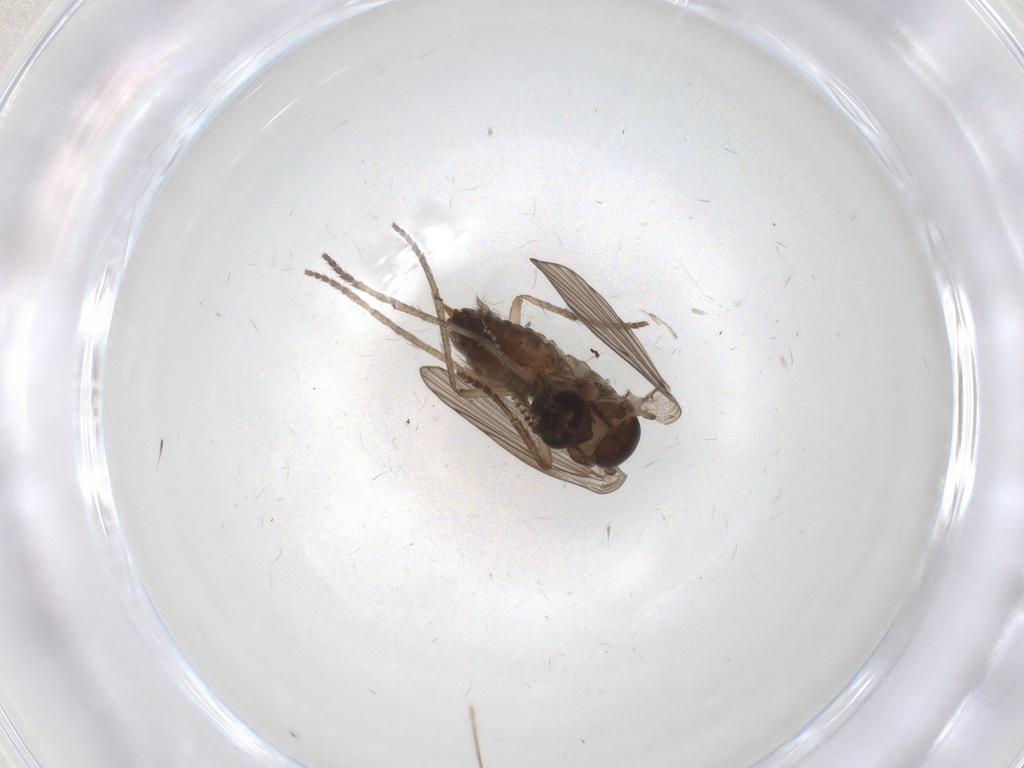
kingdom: Animalia
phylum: Arthropoda
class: Insecta
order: Diptera
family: Psychodidae
